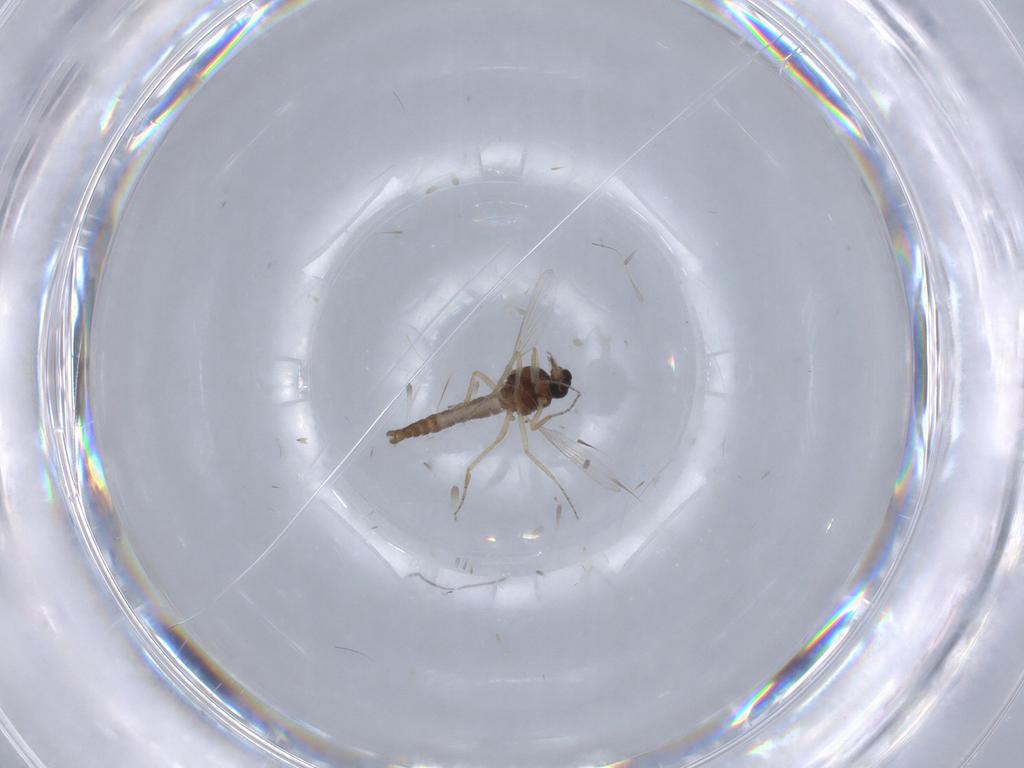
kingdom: Animalia
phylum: Arthropoda
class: Insecta
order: Diptera
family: Ceratopogonidae
